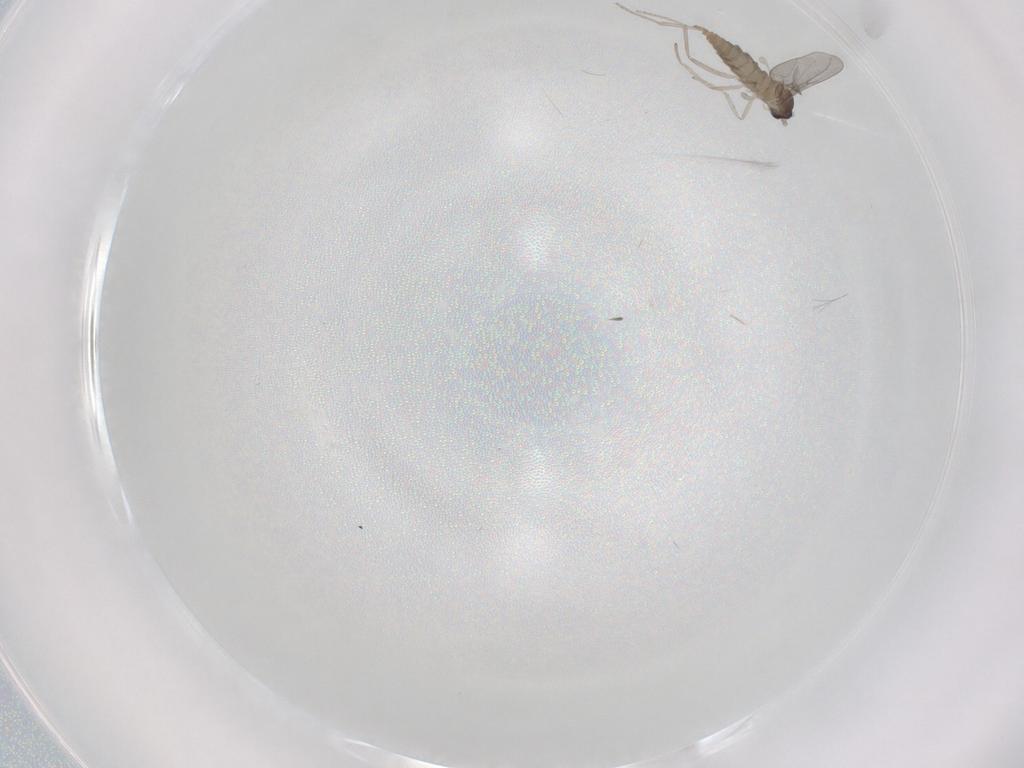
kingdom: Animalia
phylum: Arthropoda
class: Insecta
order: Diptera
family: Cecidomyiidae
